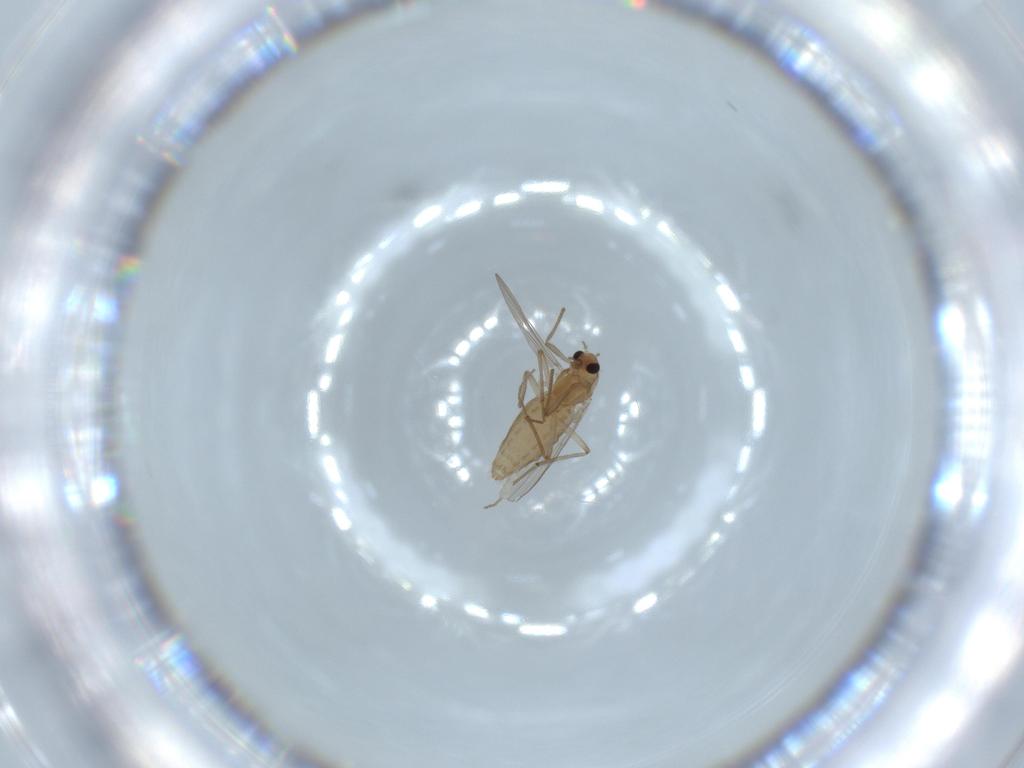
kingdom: Animalia
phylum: Arthropoda
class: Insecta
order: Diptera
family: Chironomidae
